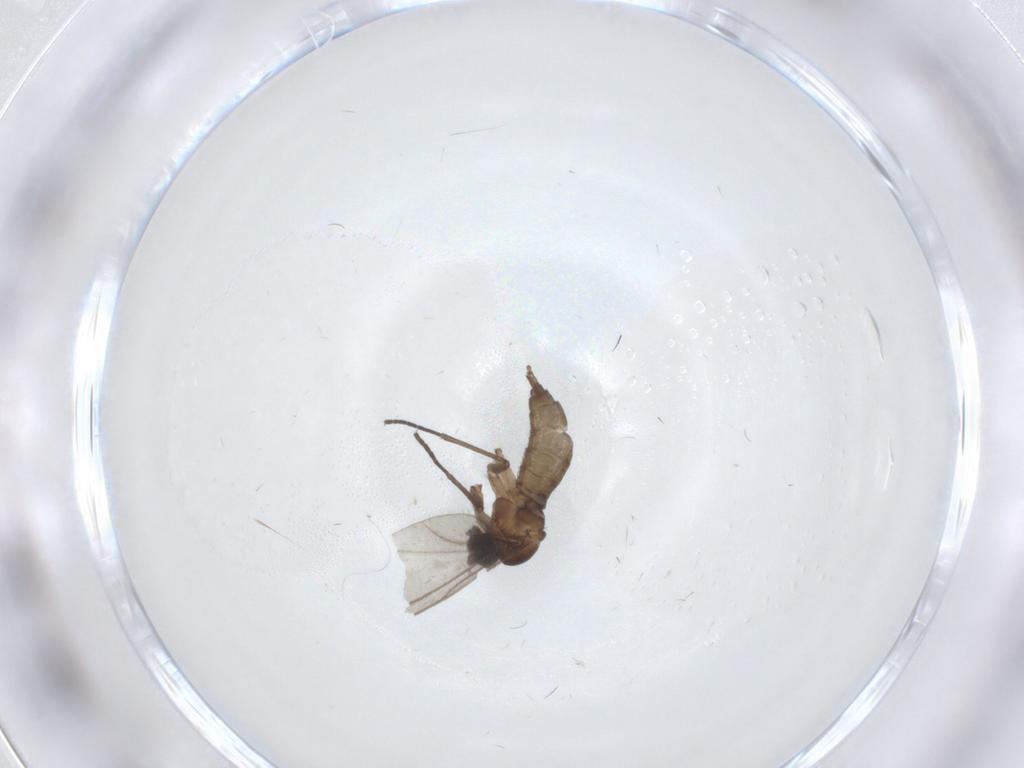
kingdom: Animalia
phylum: Arthropoda
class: Insecta
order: Diptera
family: Sciaridae
